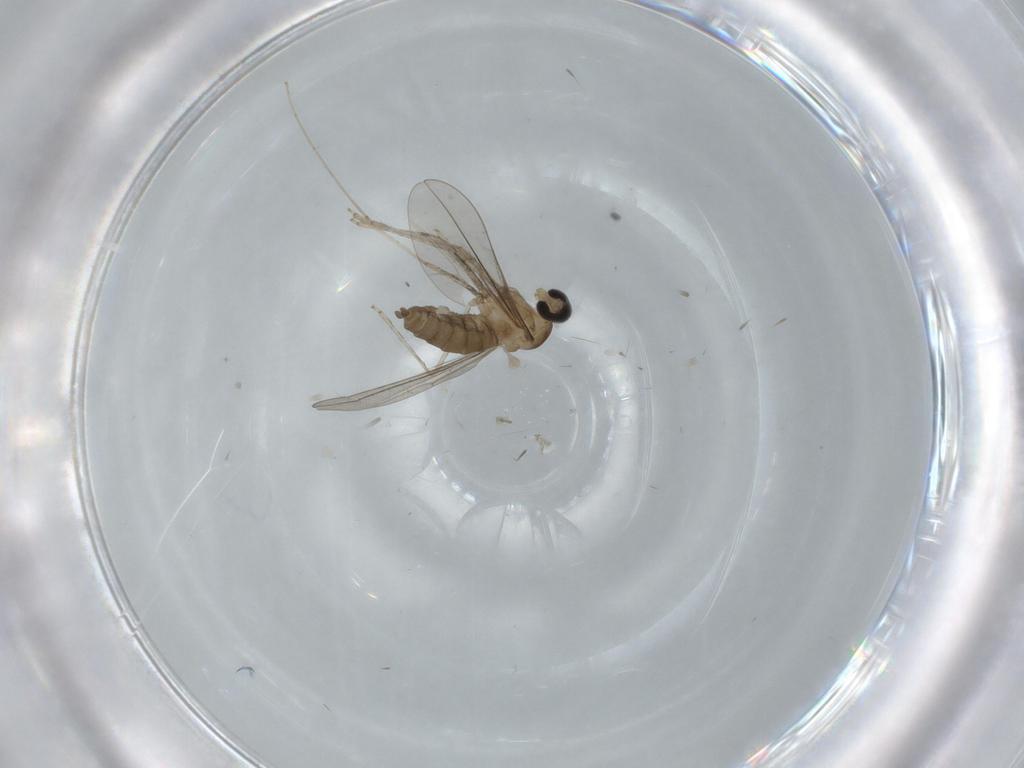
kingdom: Animalia
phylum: Arthropoda
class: Insecta
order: Diptera
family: Cecidomyiidae
